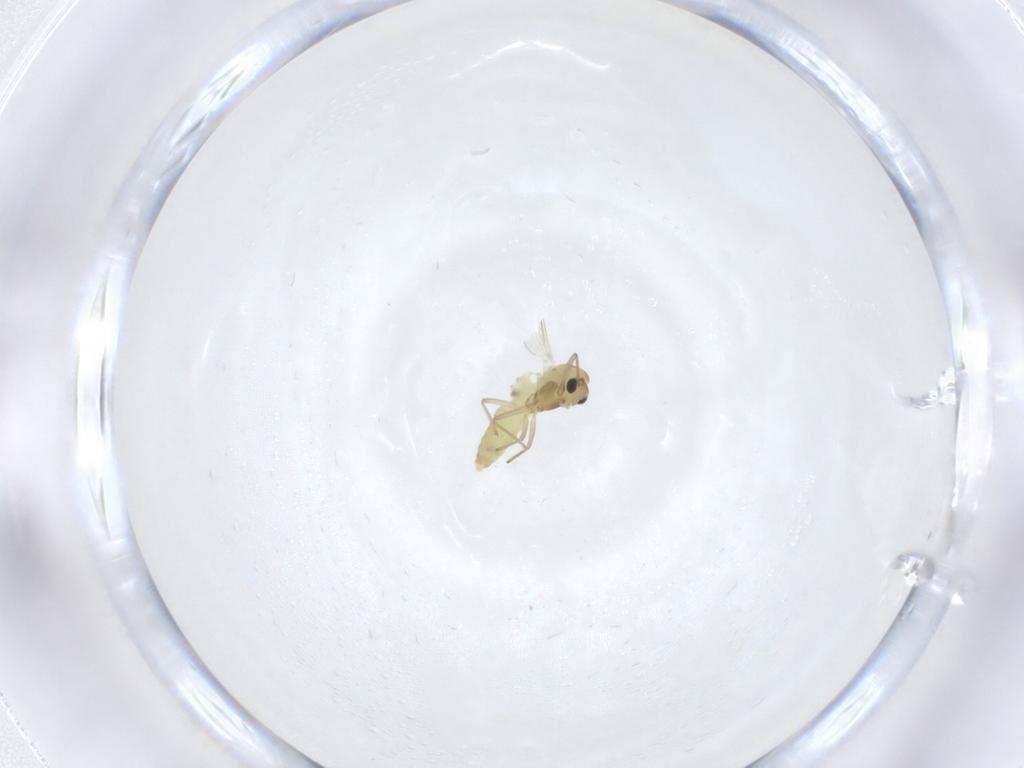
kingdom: Animalia
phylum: Arthropoda
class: Insecta
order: Diptera
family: Chironomidae
